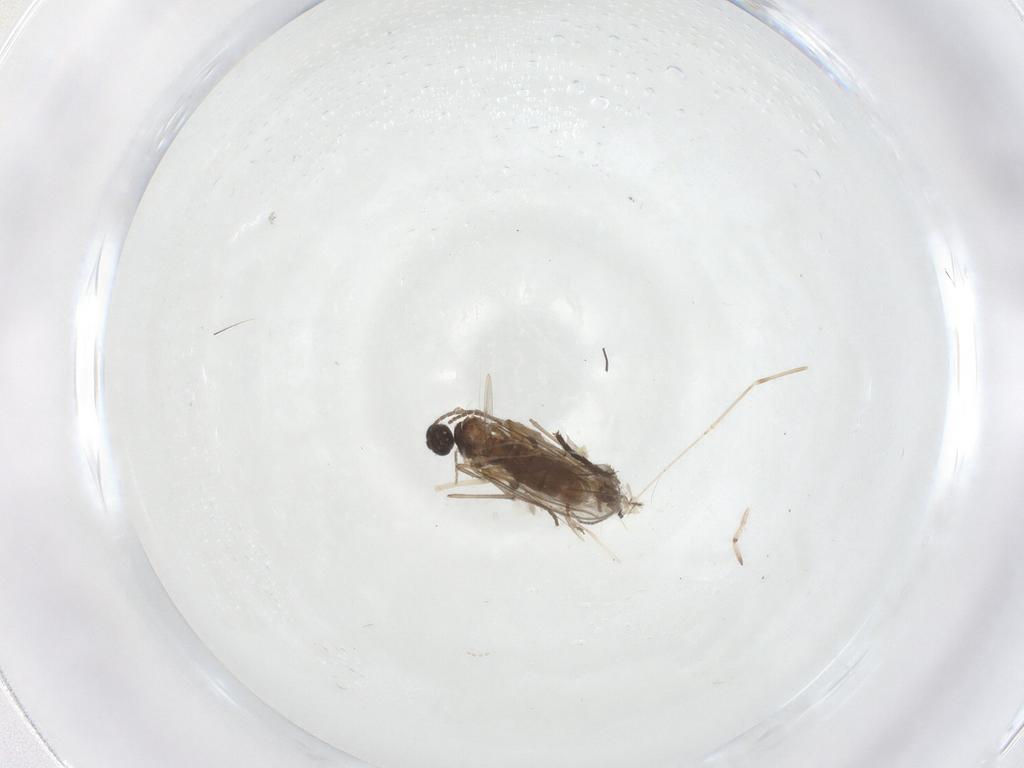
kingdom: Animalia
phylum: Arthropoda
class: Insecta
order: Diptera
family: Sciaridae
